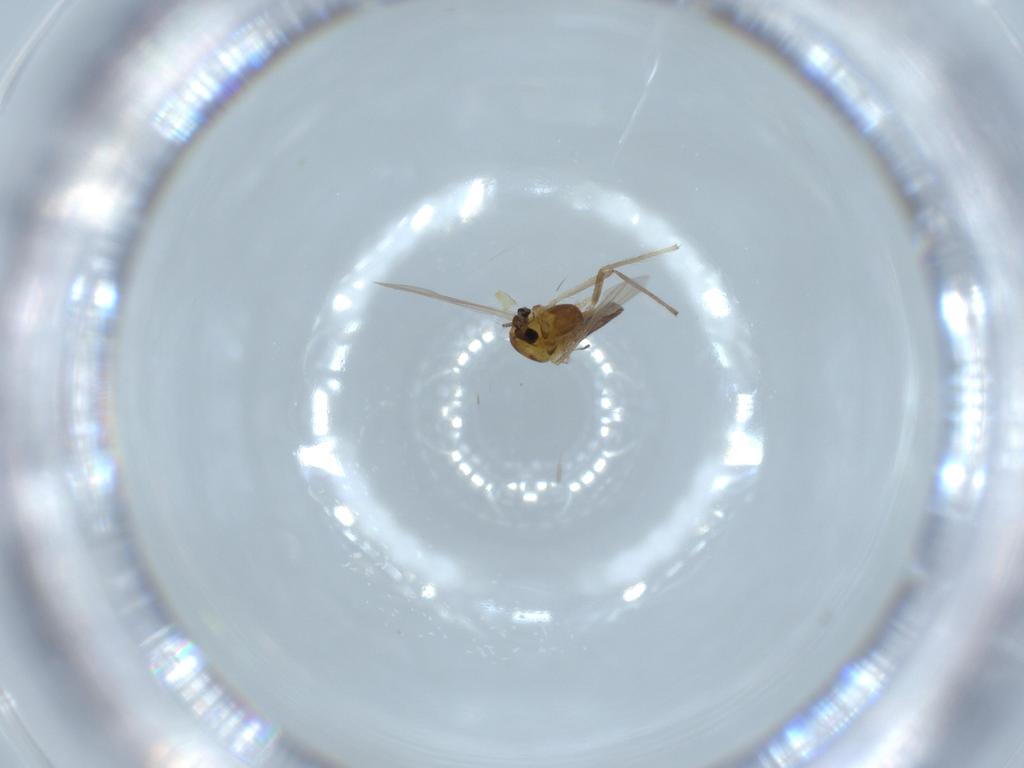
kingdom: Animalia
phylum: Arthropoda
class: Insecta
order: Diptera
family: Chironomidae
